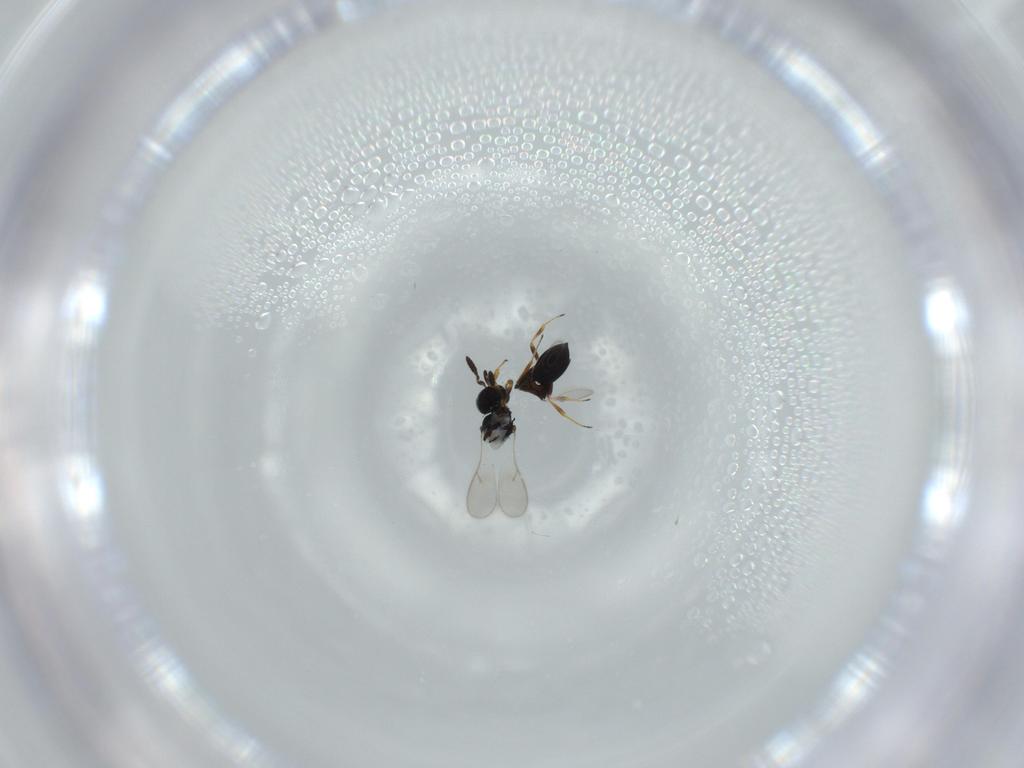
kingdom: Animalia
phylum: Arthropoda
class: Insecta
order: Hymenoptera
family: Scelionidae
